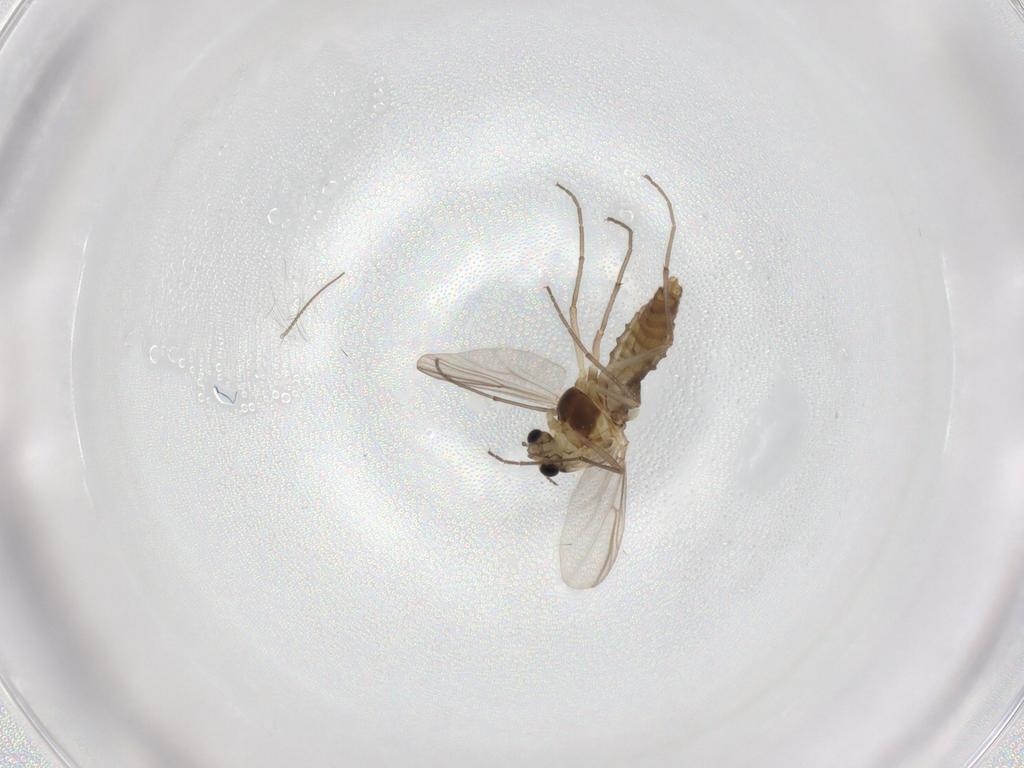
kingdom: Animalia
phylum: Arthropoda
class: Insecta
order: Diptera
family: Chironomidae
